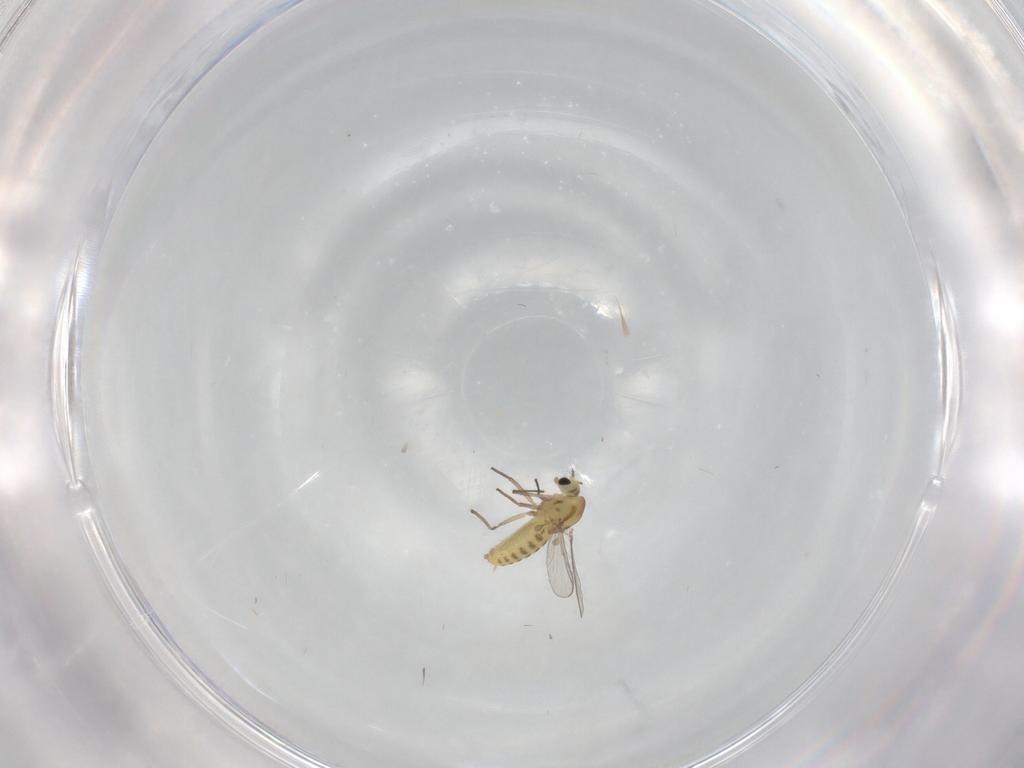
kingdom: Animalia
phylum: Arthropoda
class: Insecta
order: Diptera
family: Chironomidae
